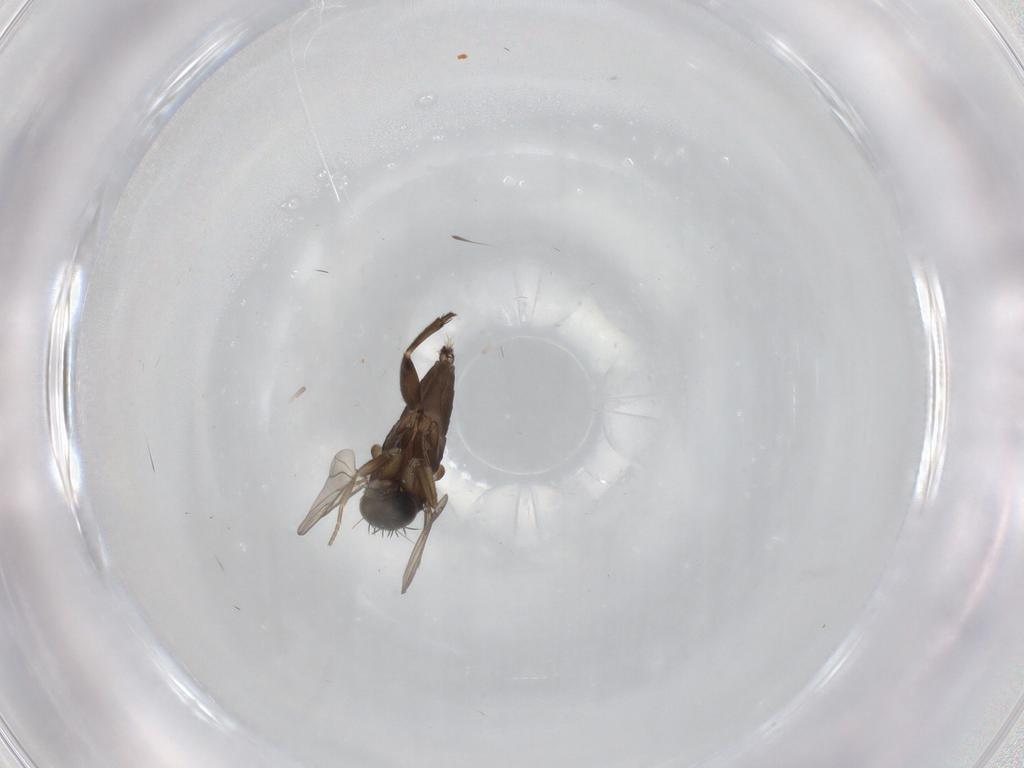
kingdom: Animalia
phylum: Arthropoda
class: Insecta
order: Diptera
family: Phoridae
